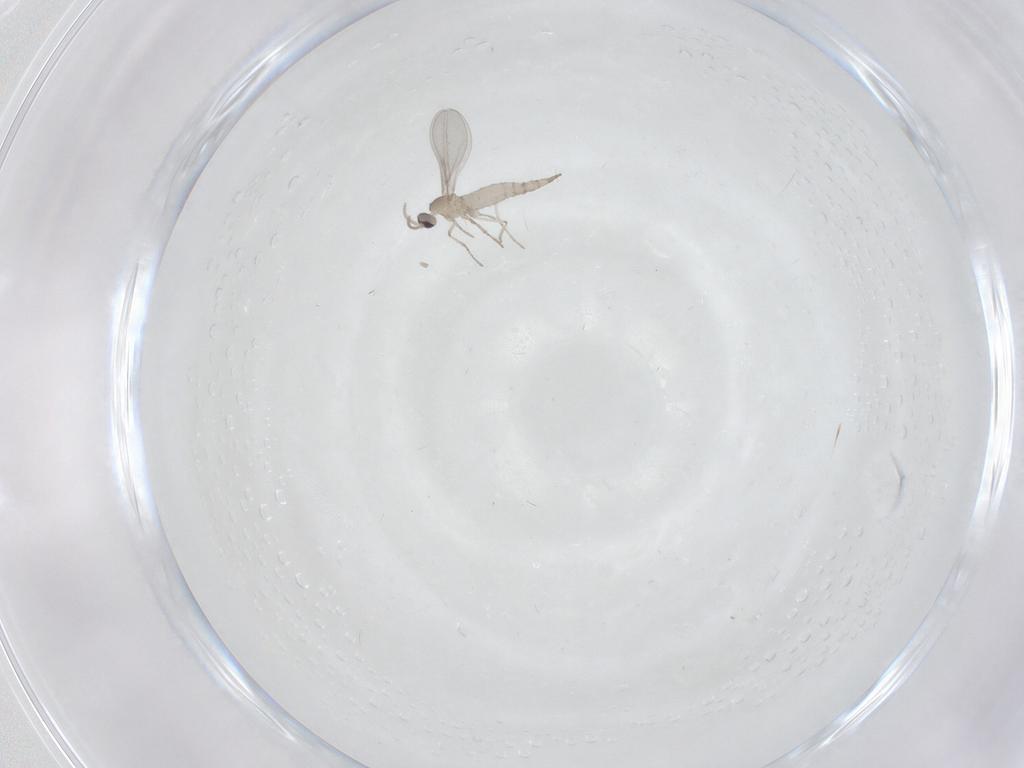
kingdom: Animalia
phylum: Arthropoda
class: Insecta
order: Diptera
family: Cecidomyiidae
